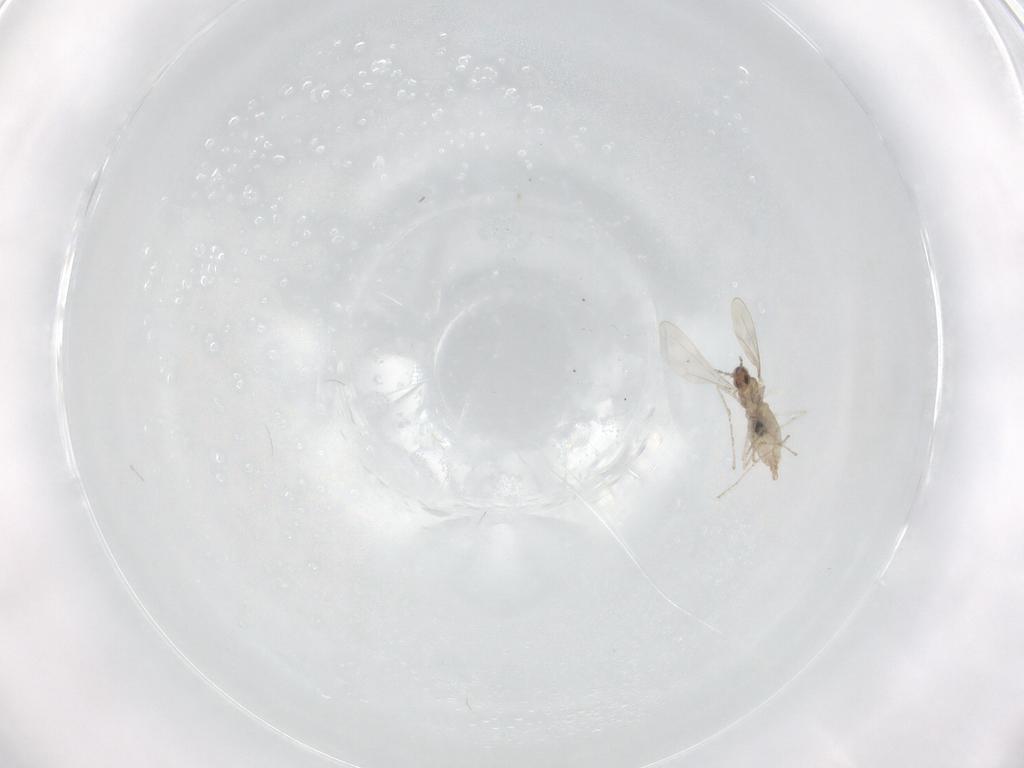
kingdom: Animalia
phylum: Arthropoda
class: Insecta
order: Diptera
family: Cecidomyiidae
